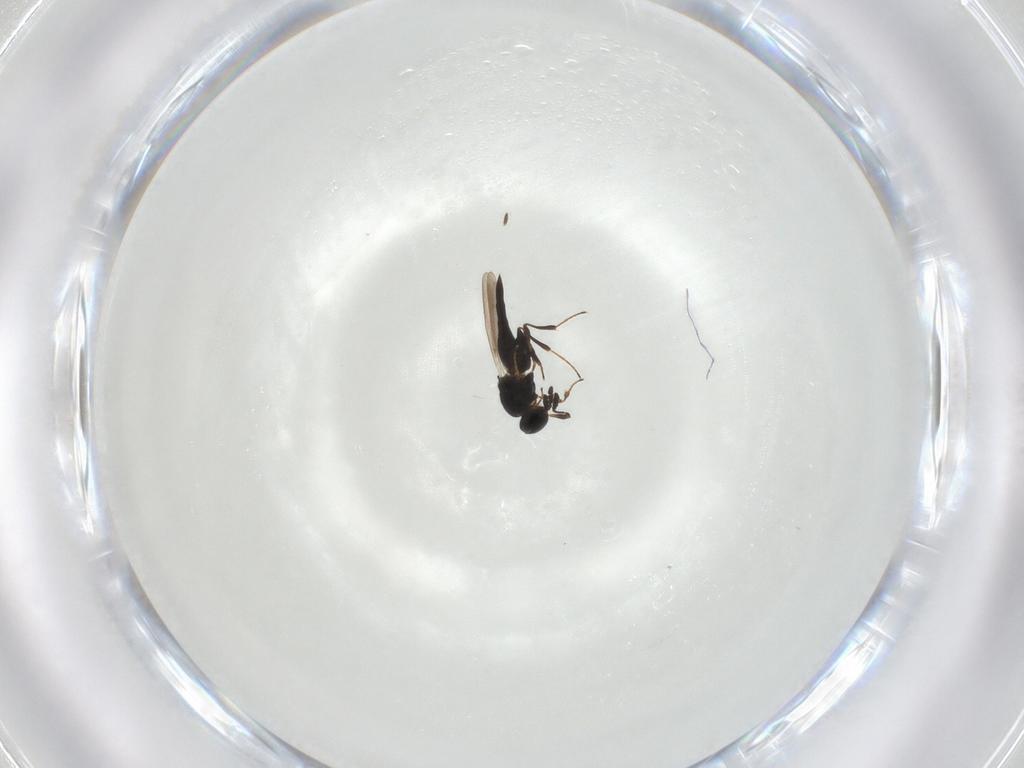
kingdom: Animalia
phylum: Arthropoda
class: Insecta
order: Hymenoptera
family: Platygastridae
